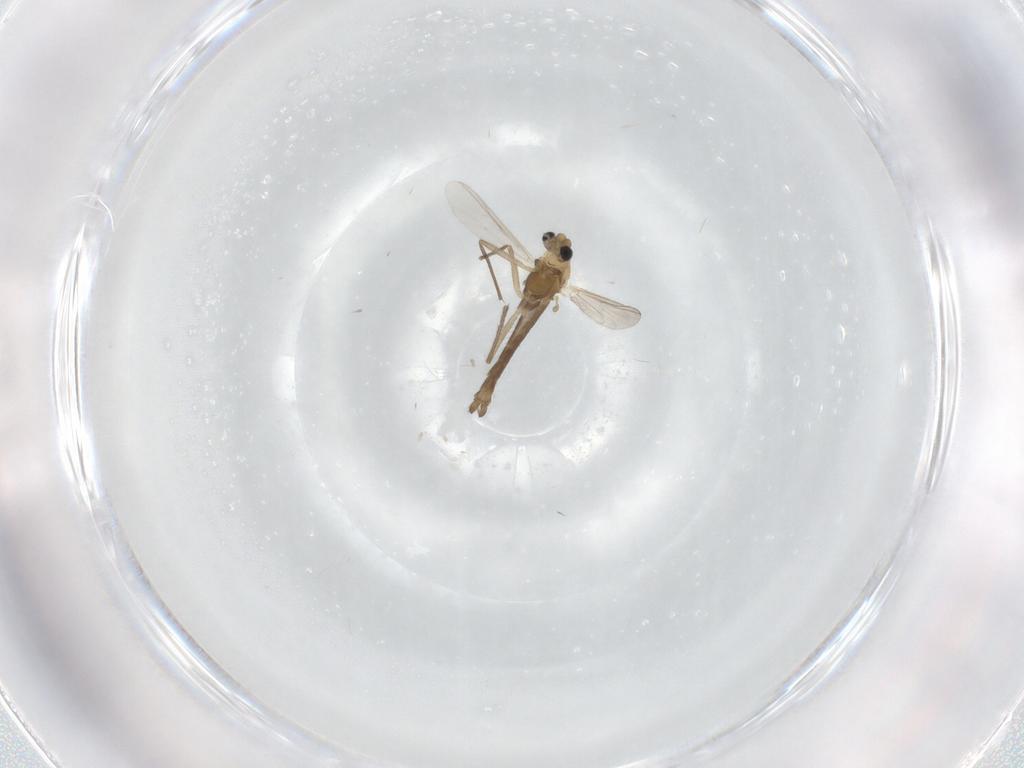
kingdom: Animalia
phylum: Arthropoda
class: Insecta
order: Diptera
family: Chironomidae
